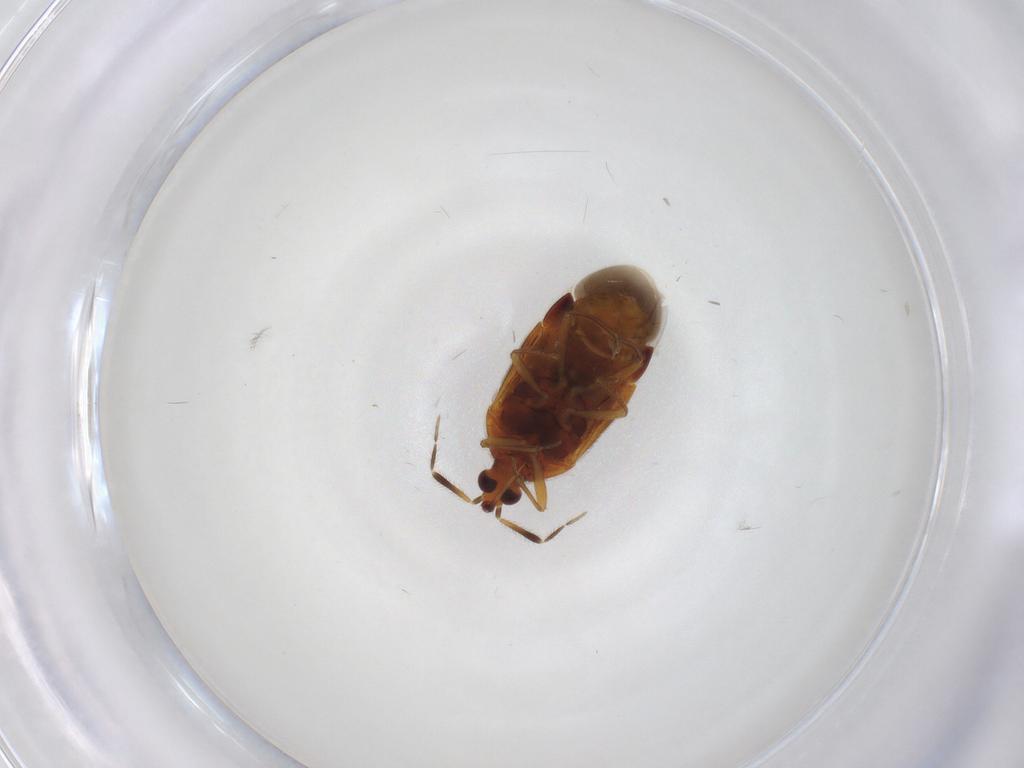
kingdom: Animalia
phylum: Arthropoda
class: Insecta
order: Hemiptera
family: Anthocoridae
